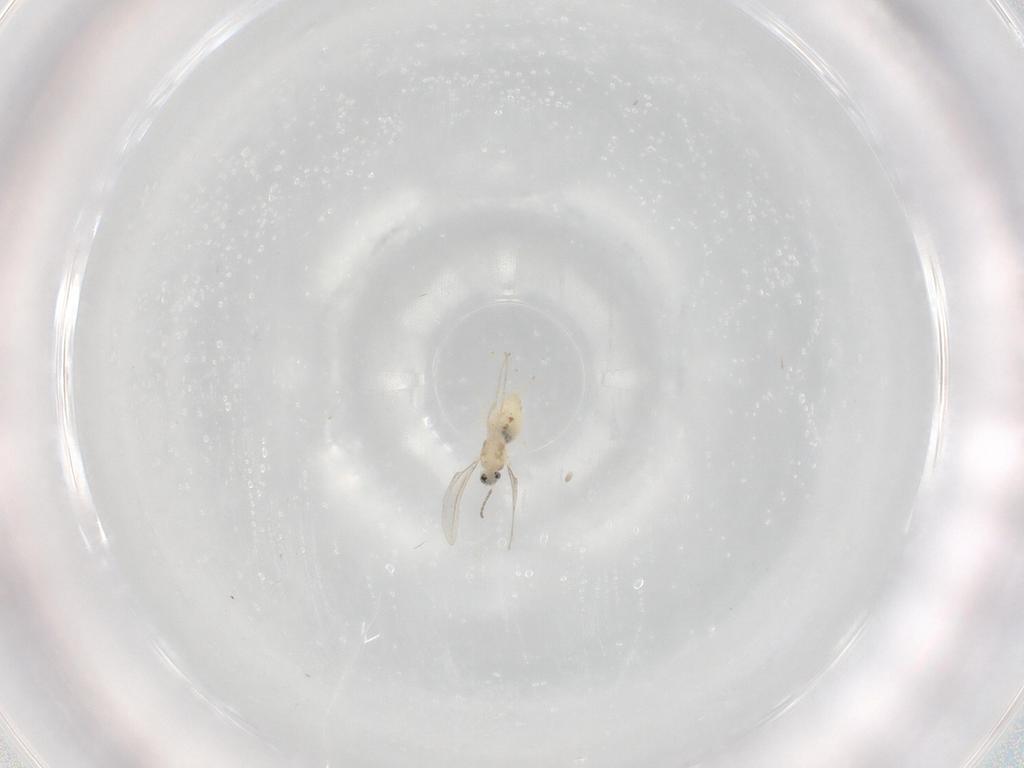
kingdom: Animalia
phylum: Arthropoda
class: Insecta
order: Diptera
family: Cecidomyiidae
